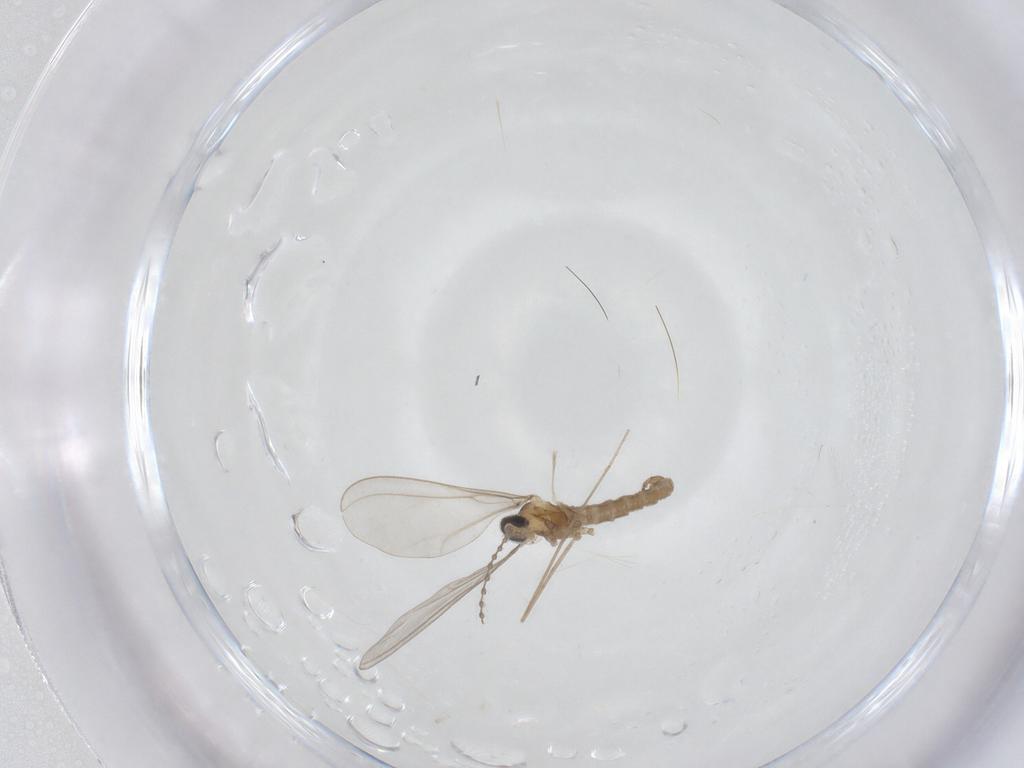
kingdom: Animalia
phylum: Arthropoda
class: Insecta
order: Diptera
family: Cecidomyiidae
